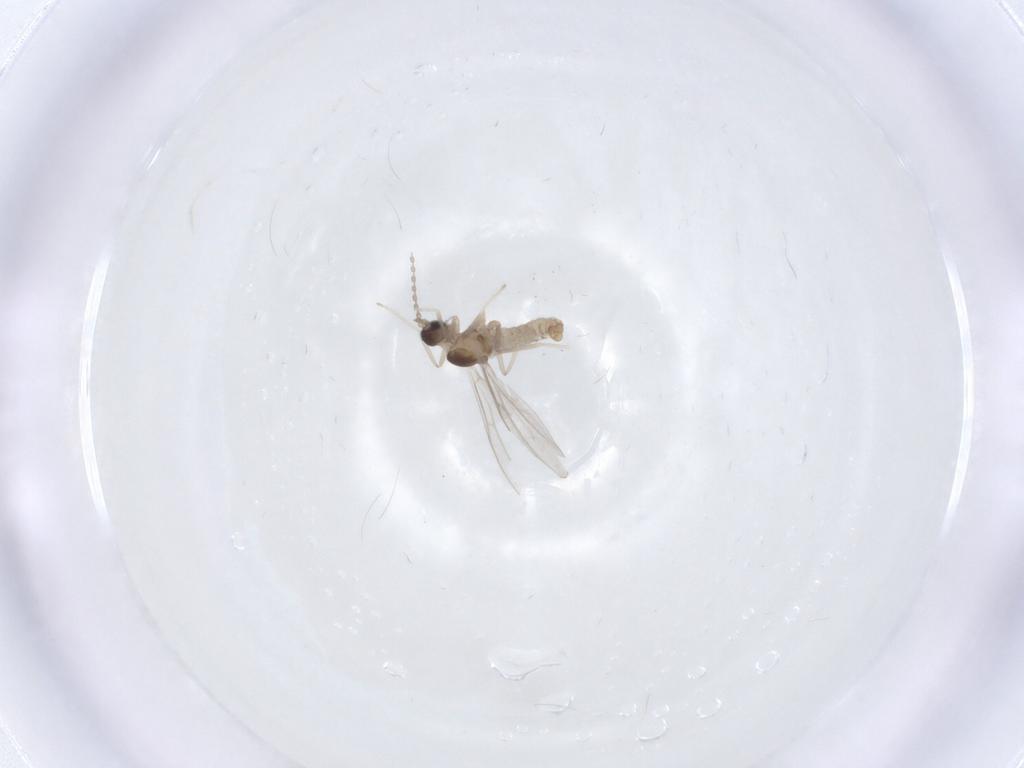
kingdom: Animalia
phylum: Arthropoda
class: Insecta
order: Diptera
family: Cecidomyiidae
